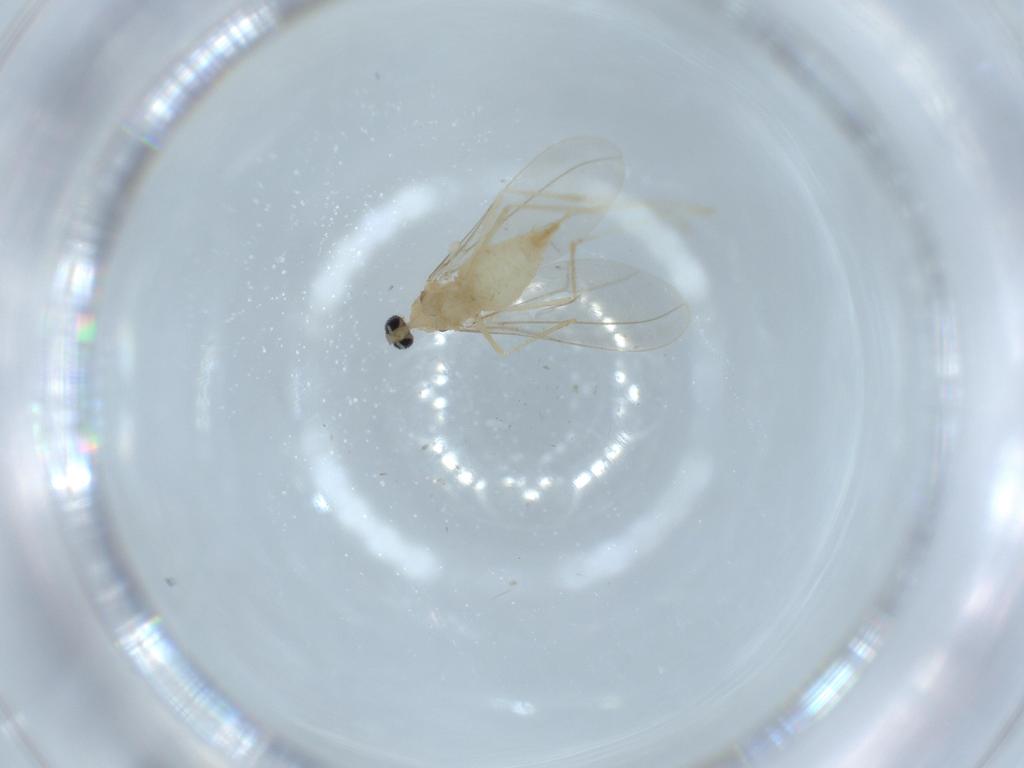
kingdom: Animalia
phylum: Arthropoda
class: Insecta
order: Diptera
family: Cecidomyiidae
